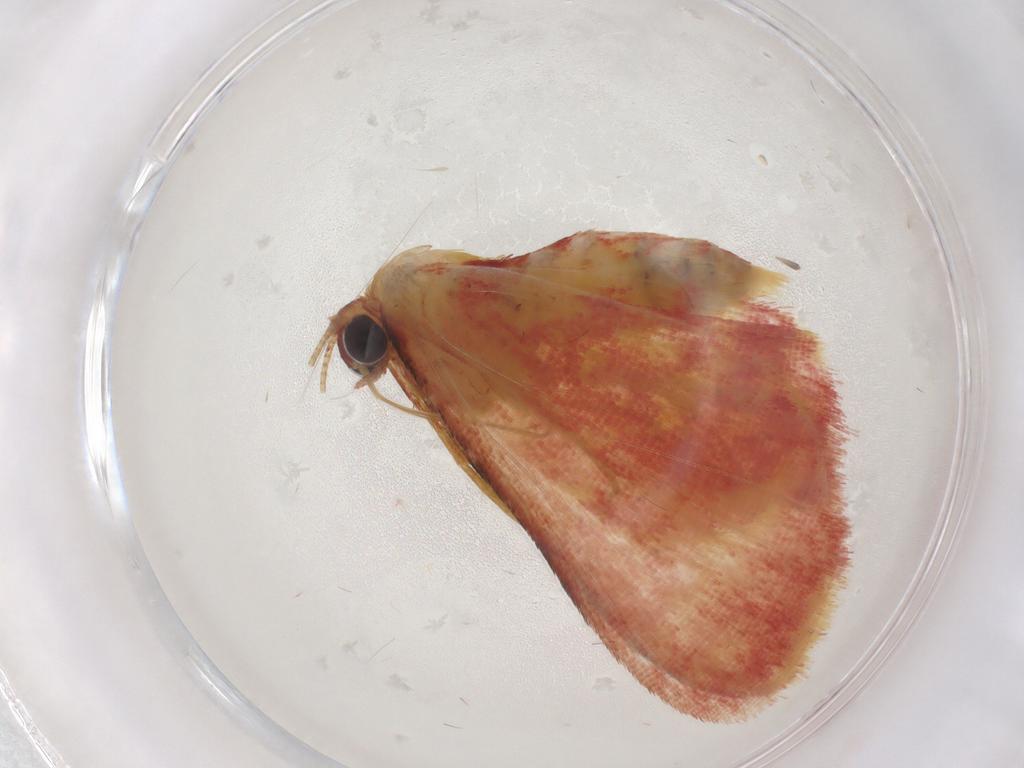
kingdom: Animalia
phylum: Arthropoda
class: Insecta
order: Lepidoptera
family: Geometridae
